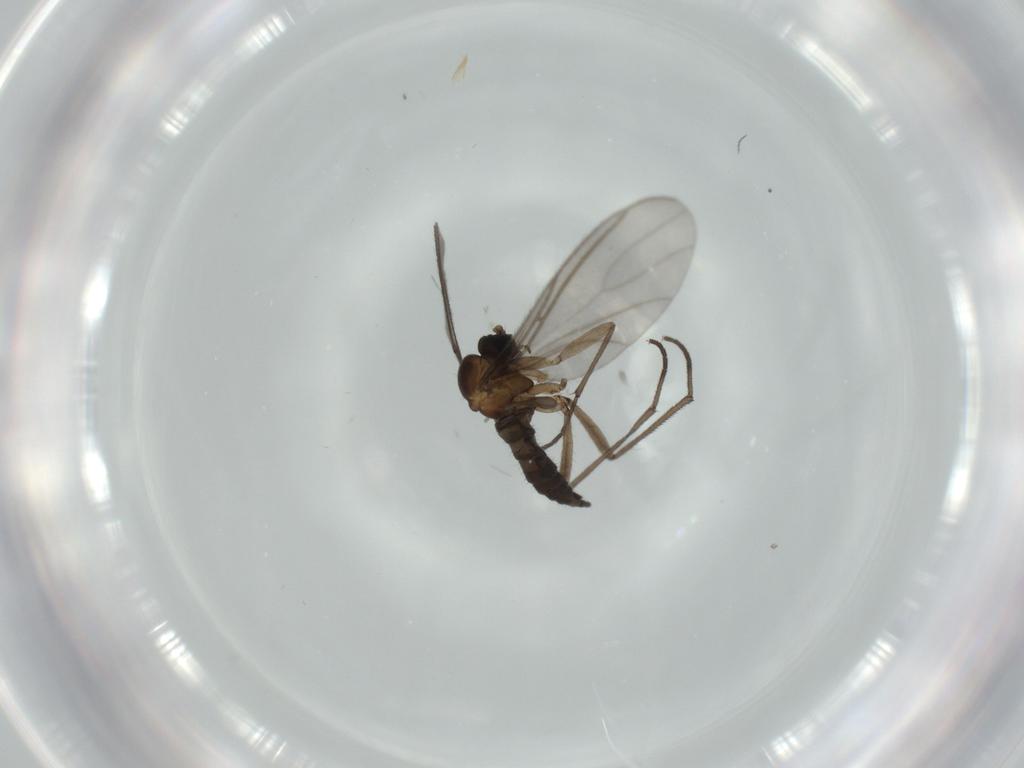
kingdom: Animalia
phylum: Arthropoda
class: Insecta
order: Diptera
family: Sciaridae
